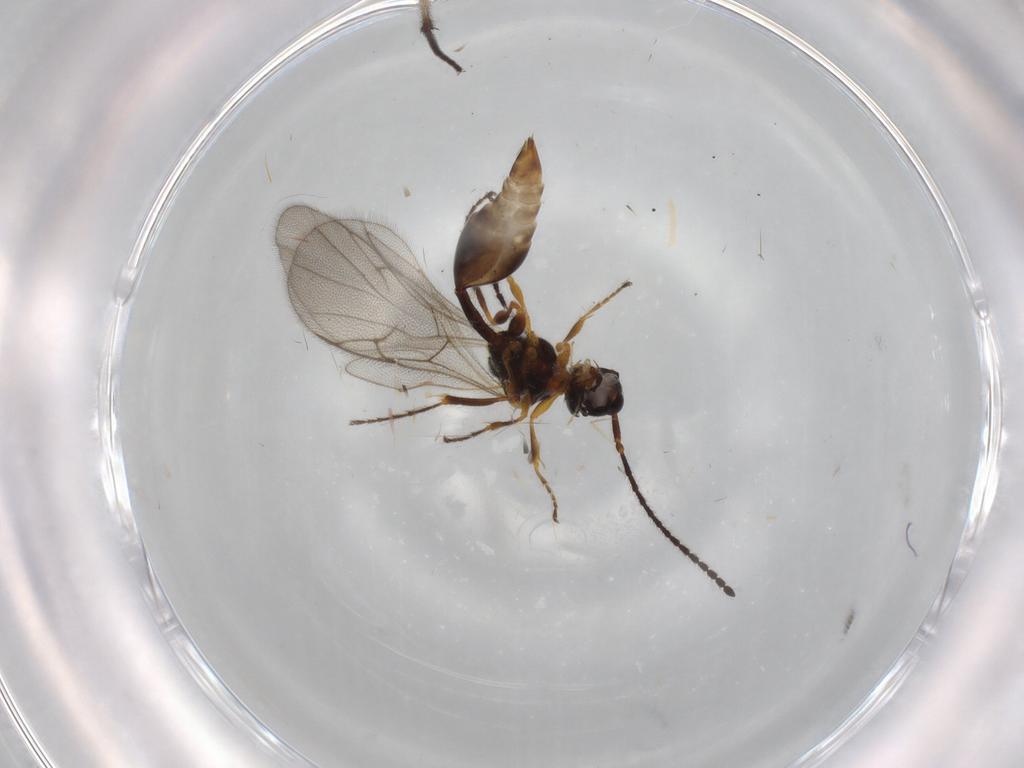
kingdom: Animalia
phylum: Arthropoda
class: Insecta
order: Hymenoptera
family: Diapriidae
